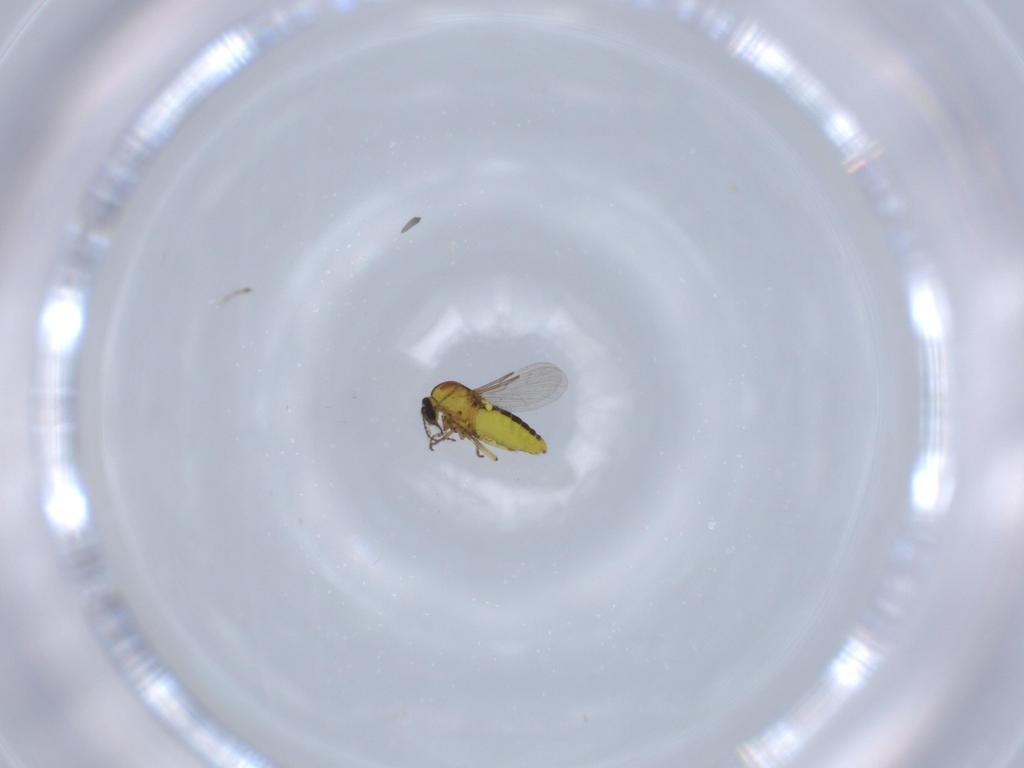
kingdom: Animalia
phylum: Arthropoda
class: Insecta
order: Diptera
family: Ceratopogonidae
